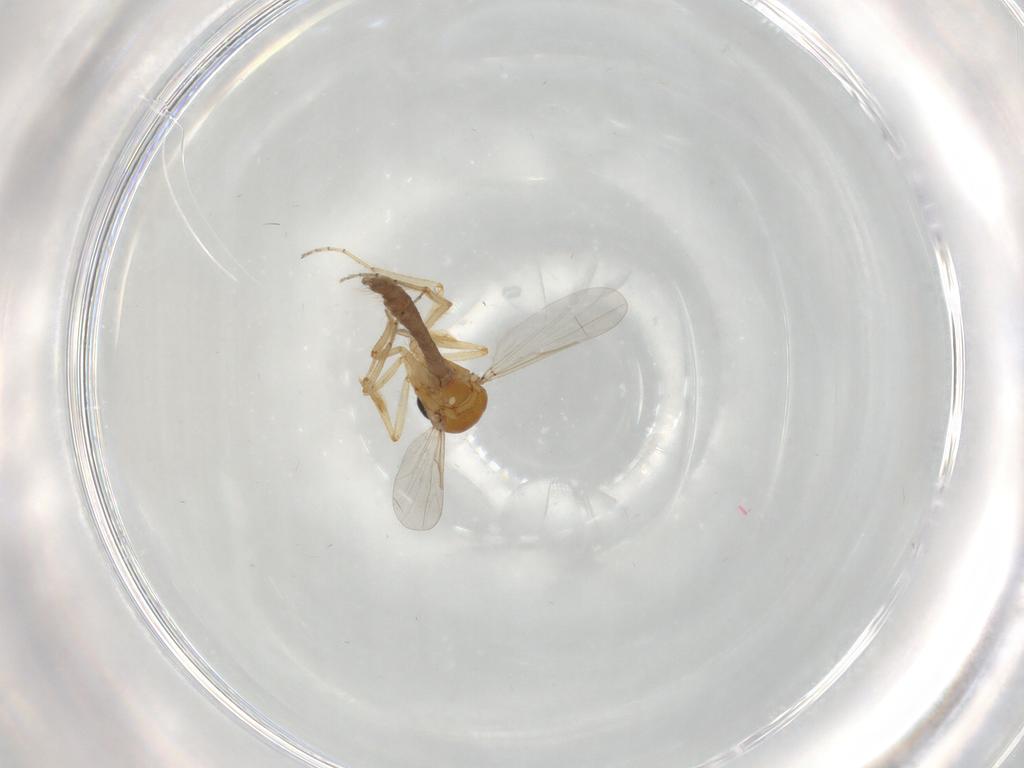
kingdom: Animalia
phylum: Arthropoda
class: Insecta
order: Diptera
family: Ceratopogonidae
